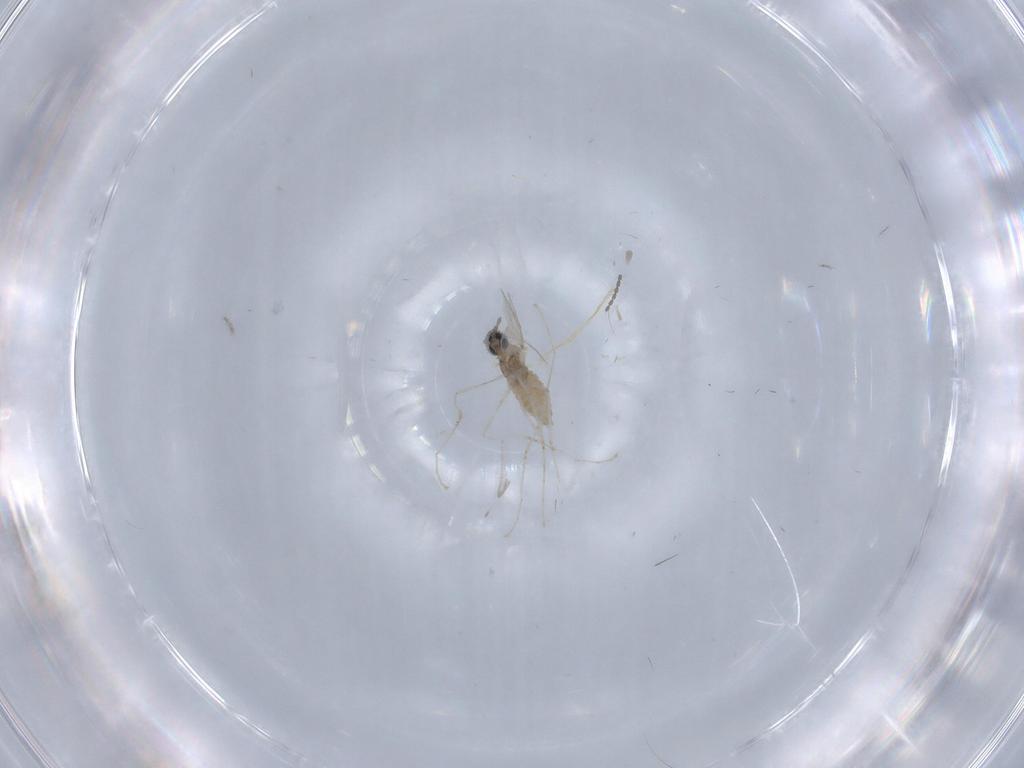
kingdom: Animalia
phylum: Arthropoda
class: Insecta
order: Diptera
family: Cecidomyiidae
